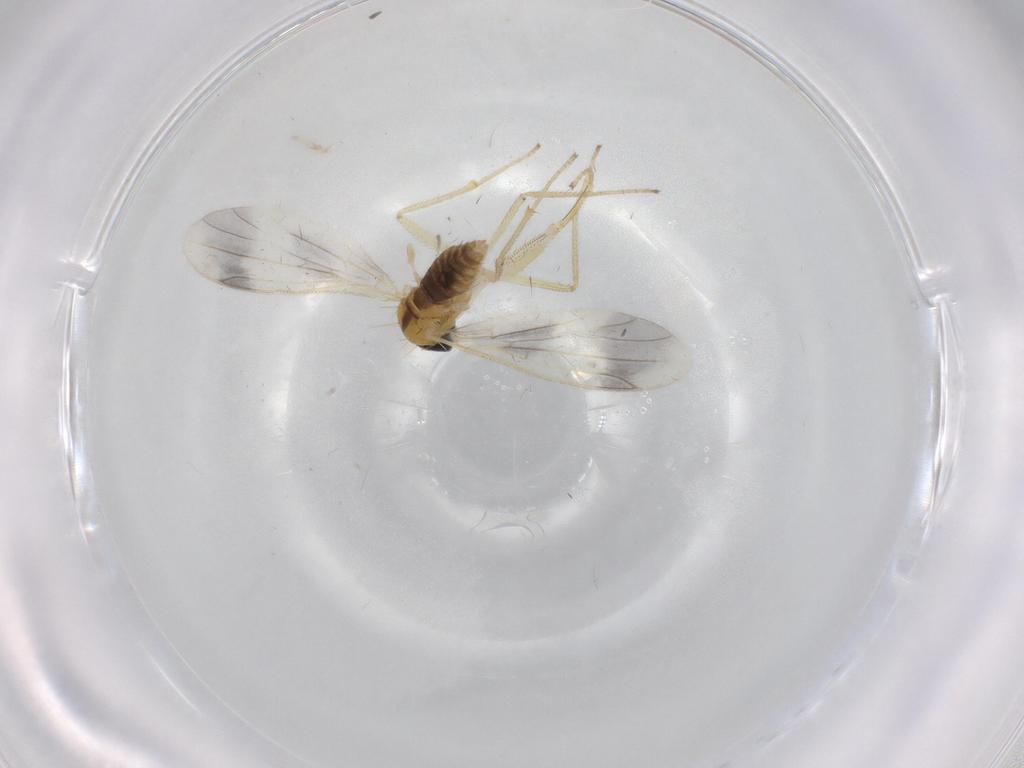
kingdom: Animalia
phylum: Arthropoda
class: Insecta
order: Diptera
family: Empididae
